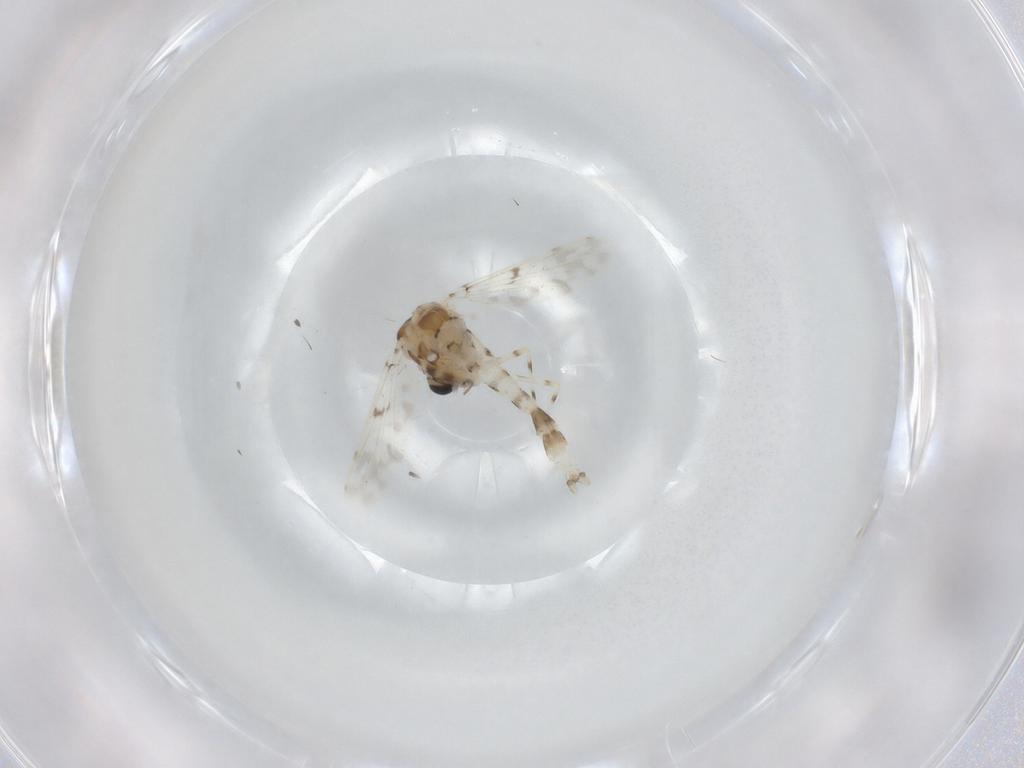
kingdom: Animalia
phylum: Arthropoda
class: Insecta
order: Diptera
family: Chironomidae
